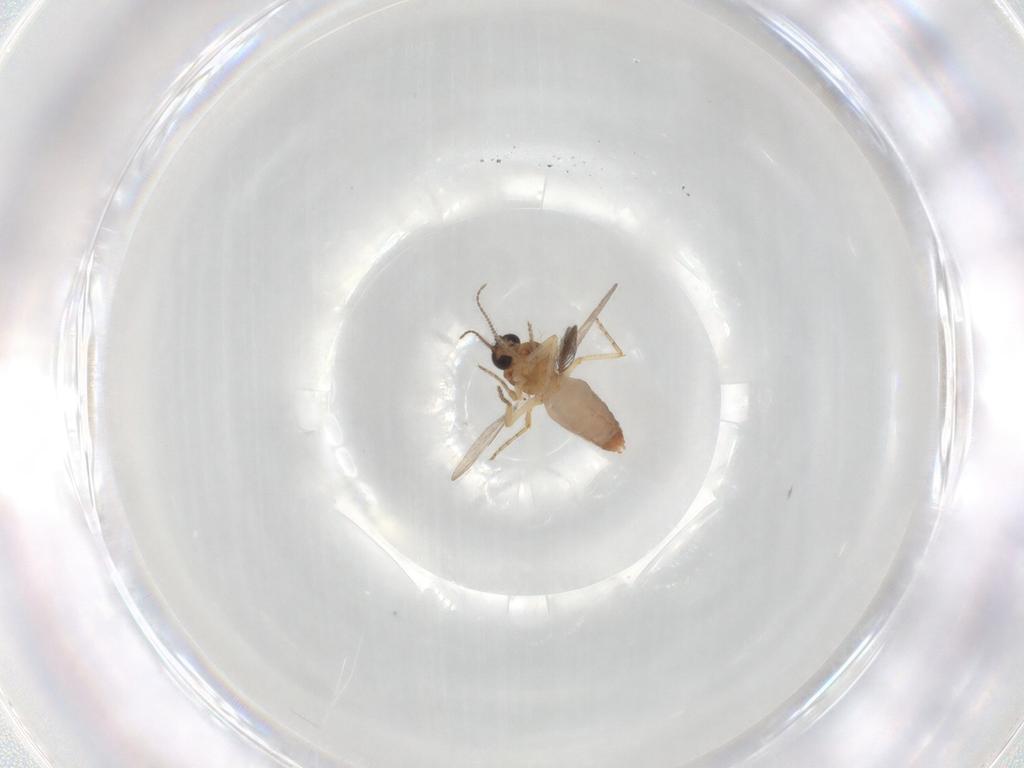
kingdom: Animalia
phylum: Arthropoda
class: Insecta
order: Diptera
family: Ceratopogonidae
